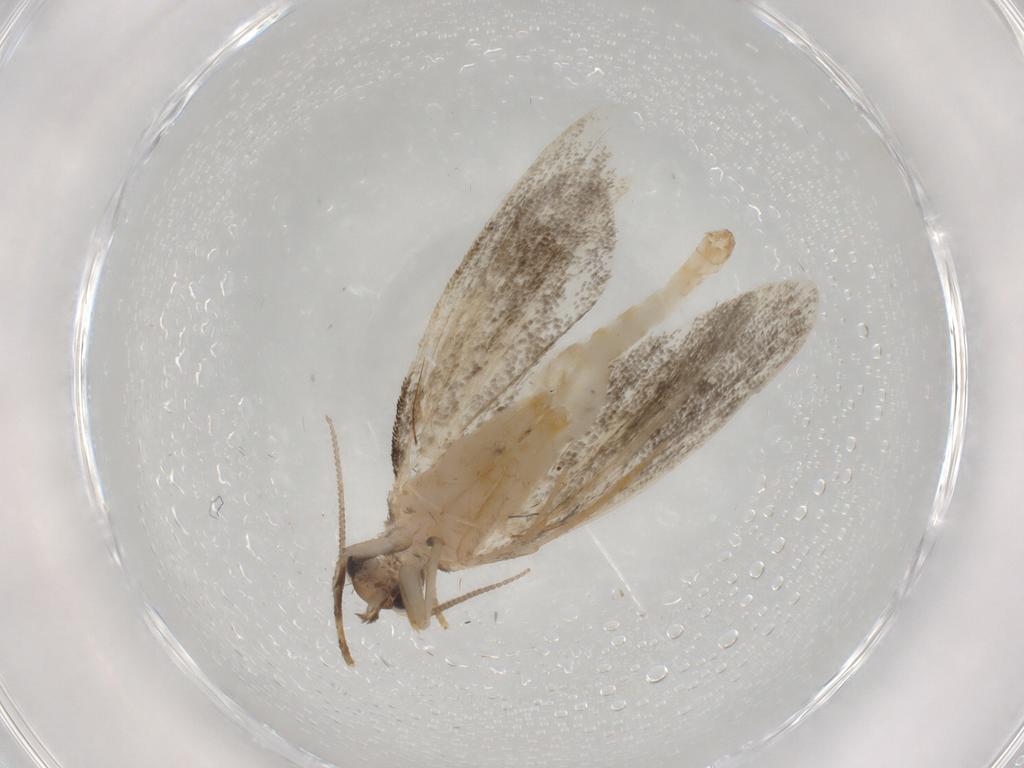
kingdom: Animalia
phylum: Arthropoda
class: Insecta
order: Lepidoptera
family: Psychidae
